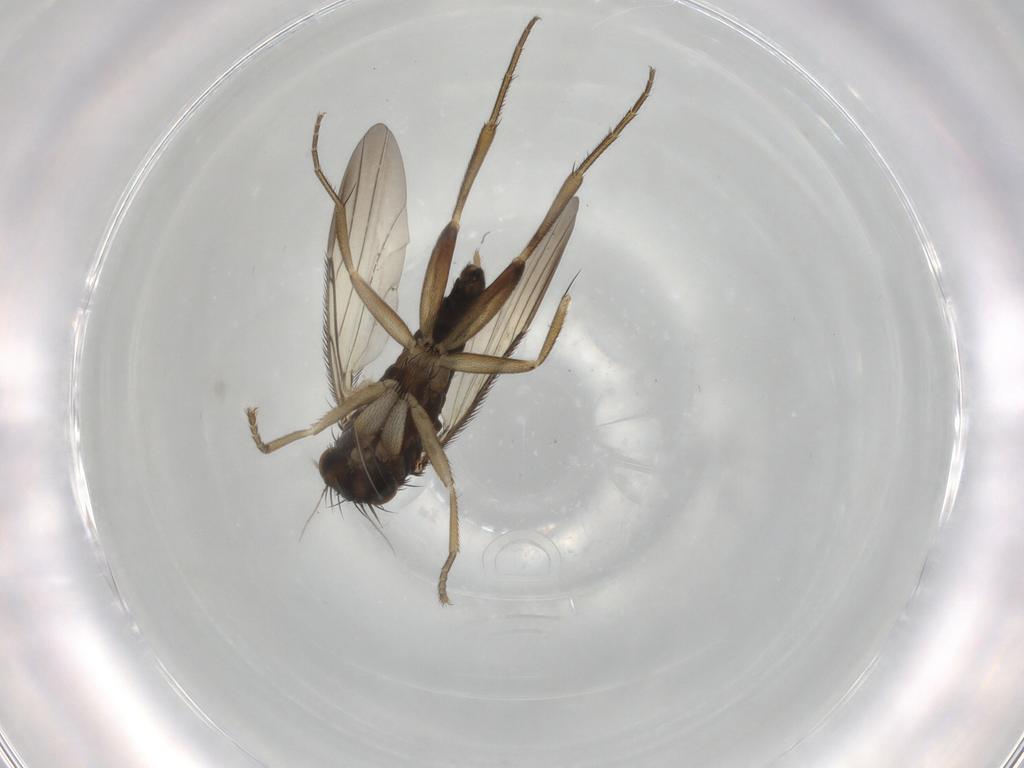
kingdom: Animalia
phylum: Arthropoda
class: Insecta
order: Diptera
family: Phoridae
